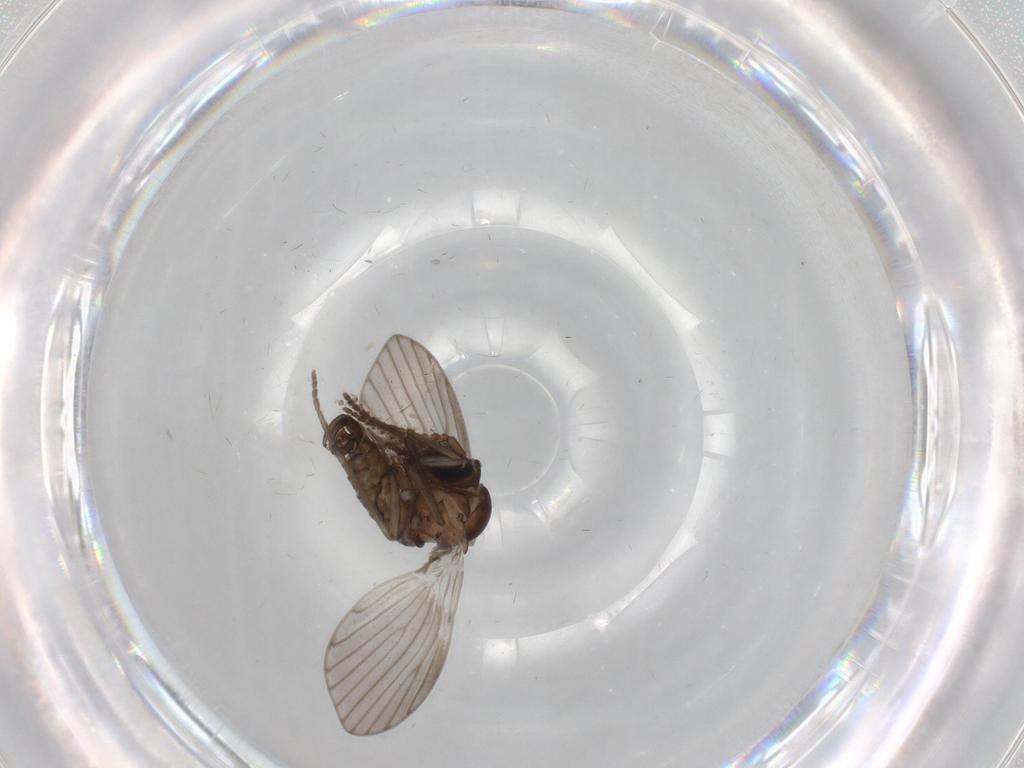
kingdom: Animalia
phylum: Arthropoda
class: Insecta
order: Diptera
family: Psychodidae
